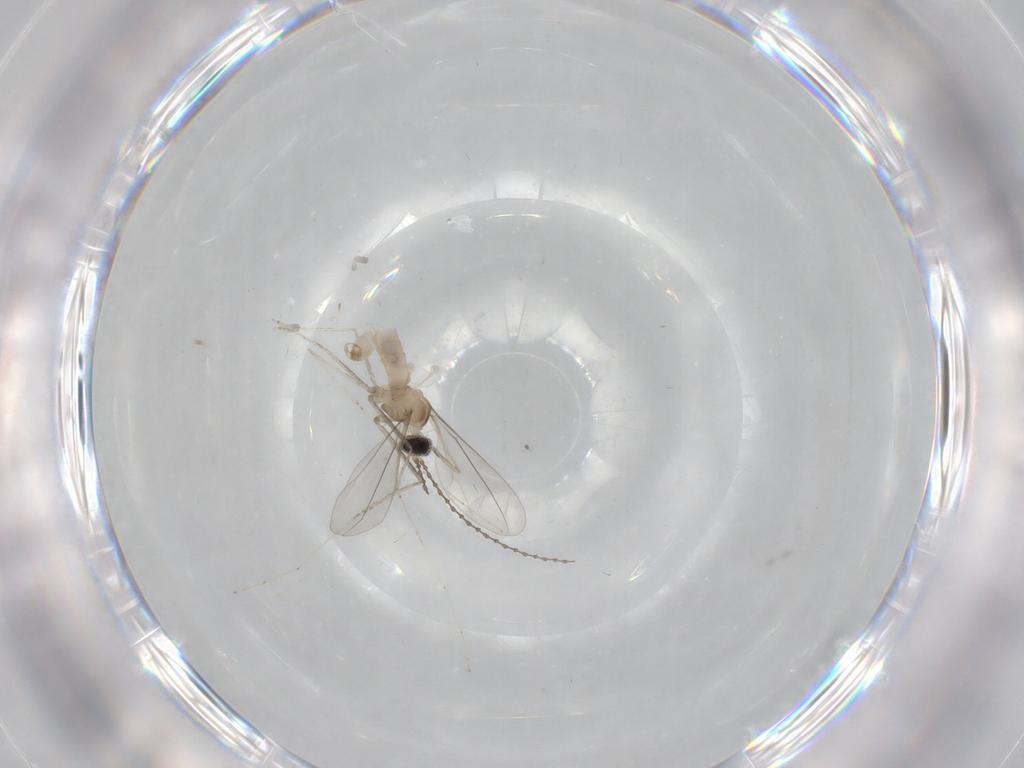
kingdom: Animalia
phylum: Arthropoda
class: Insecta
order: Diptera
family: Cecidomyiidae
